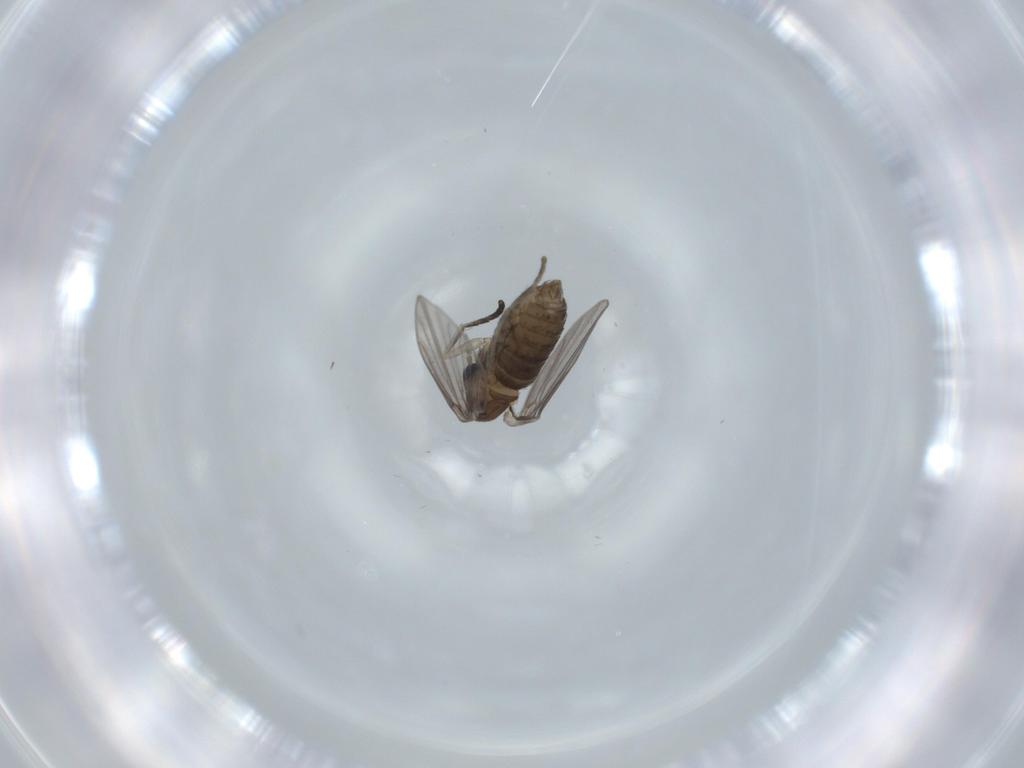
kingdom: Animalia
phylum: Arthropoda
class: Insecta
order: Diptera
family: Psychodidae
